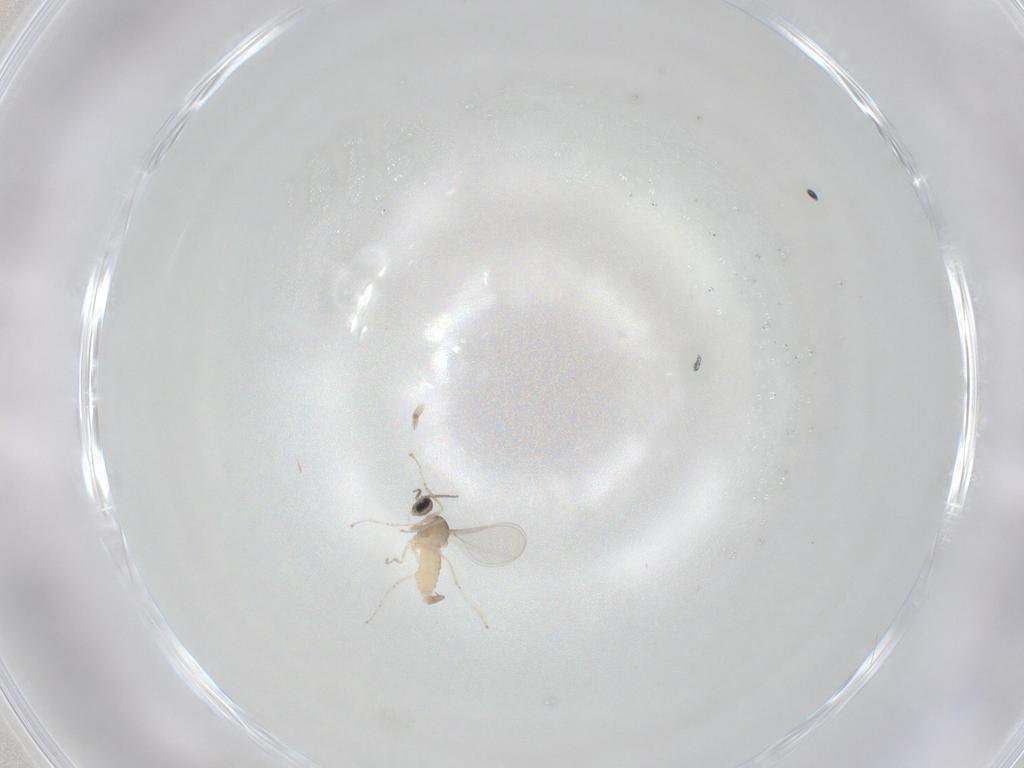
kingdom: Animalia
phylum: Arthropoda
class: Insecta
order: Diptera
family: Cecidomyiidae
